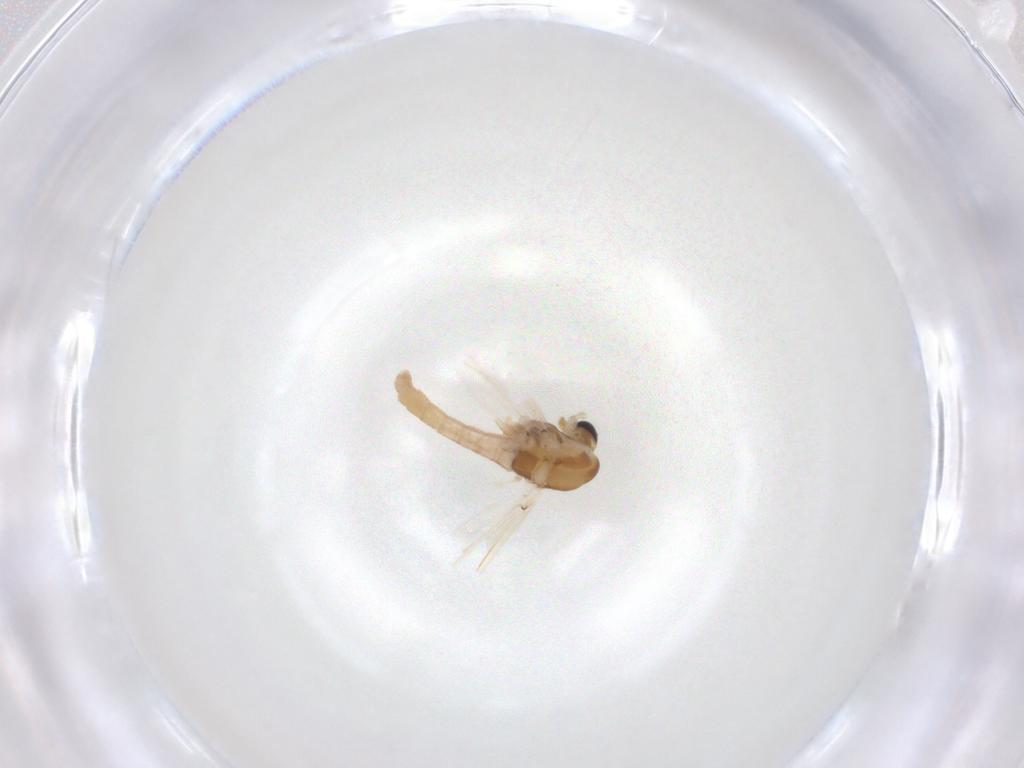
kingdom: Animalia
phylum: Arthropoda
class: Insecta
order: Diptera
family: Chironomidae
